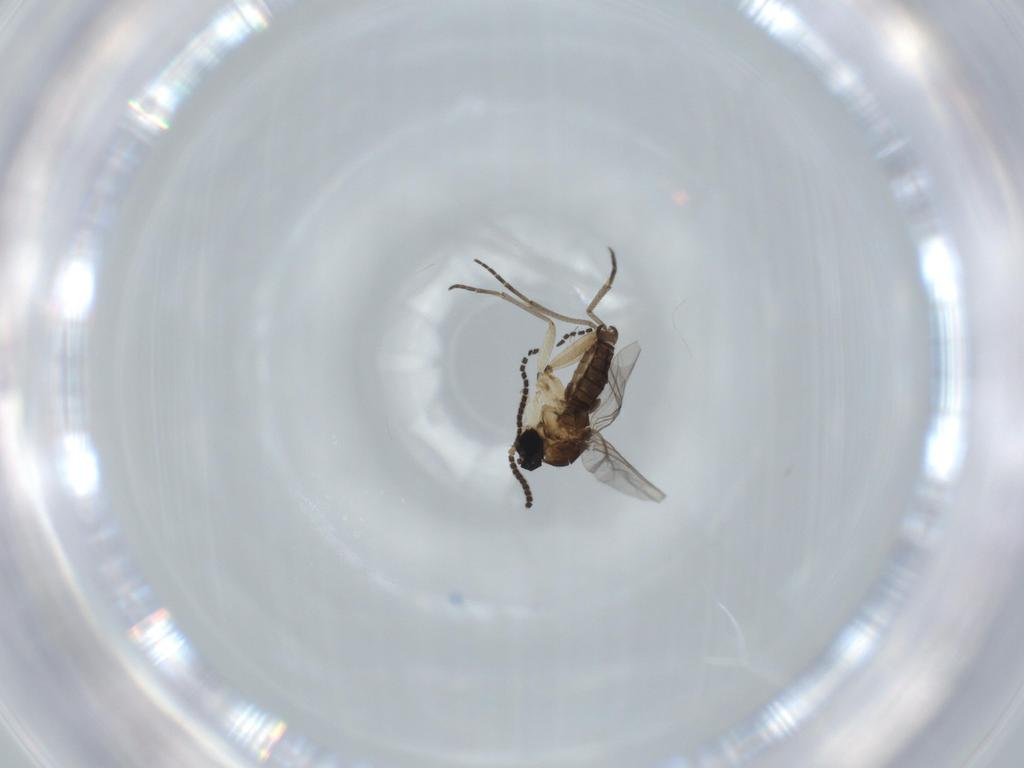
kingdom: Animalia
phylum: Arthropoda
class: Insecta
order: Diptera
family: Sciaridae
